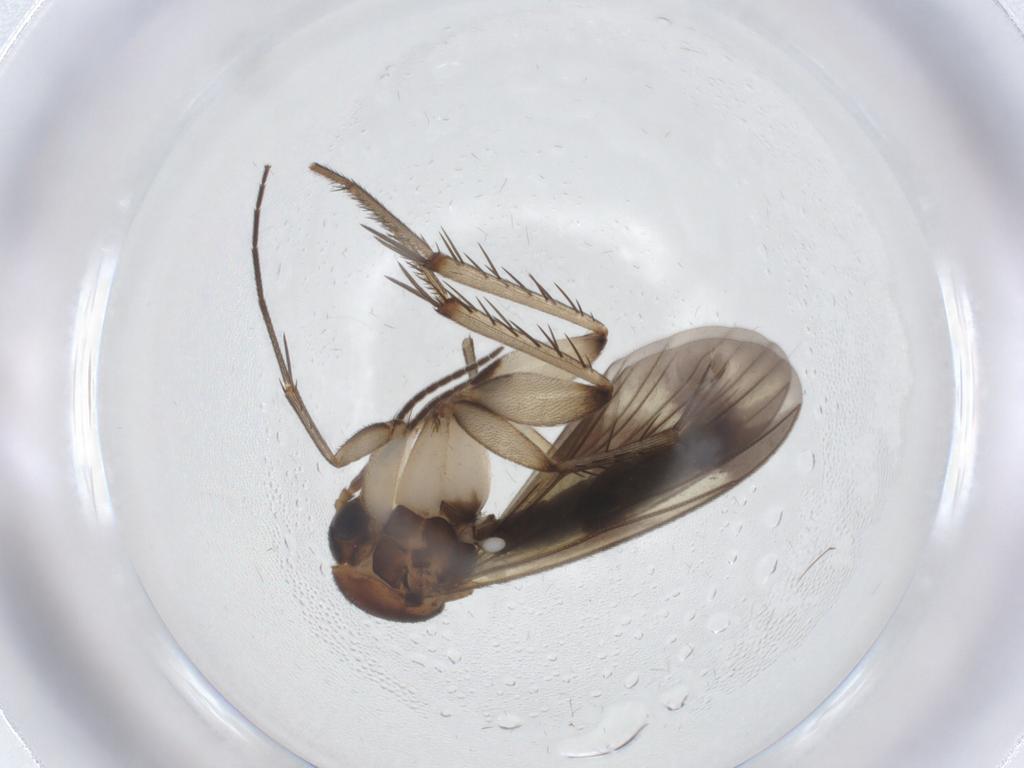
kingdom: Animalia
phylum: Arthropoda
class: Insecta
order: Diptera
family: Mycetophilidae
